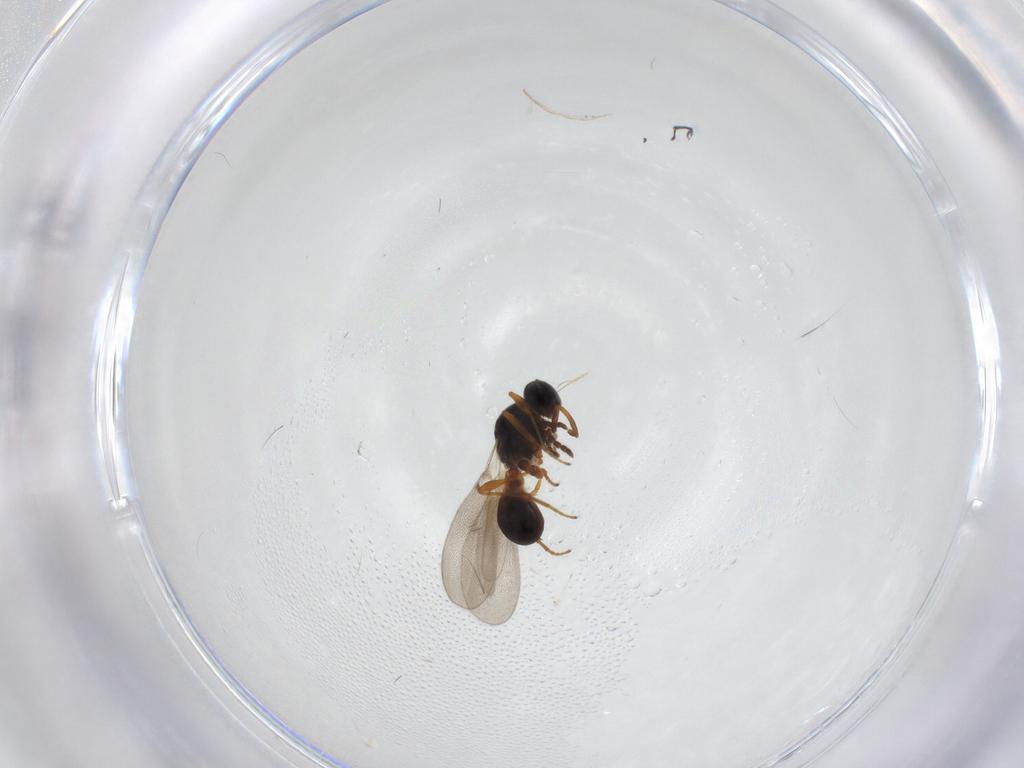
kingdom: Animalia
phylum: Arthropoda
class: Insecta
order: Hymenoptera
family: Platygastridae
